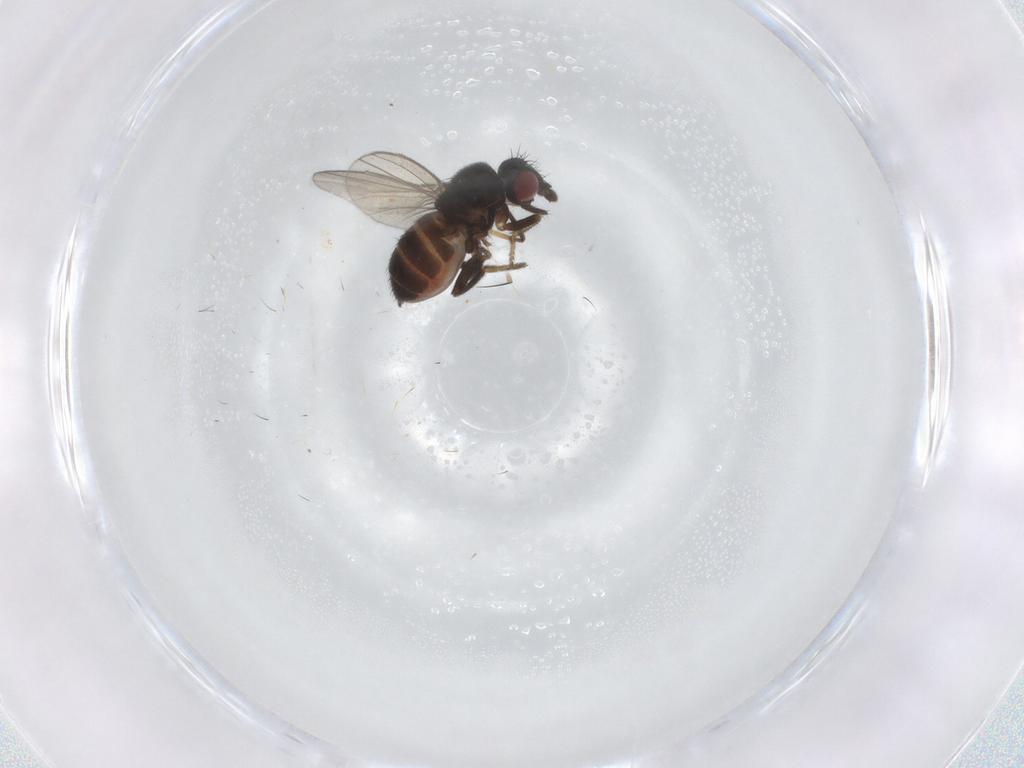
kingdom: Animalia
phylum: Arthropoda
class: Insecta
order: Diptera
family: Milichiidae
